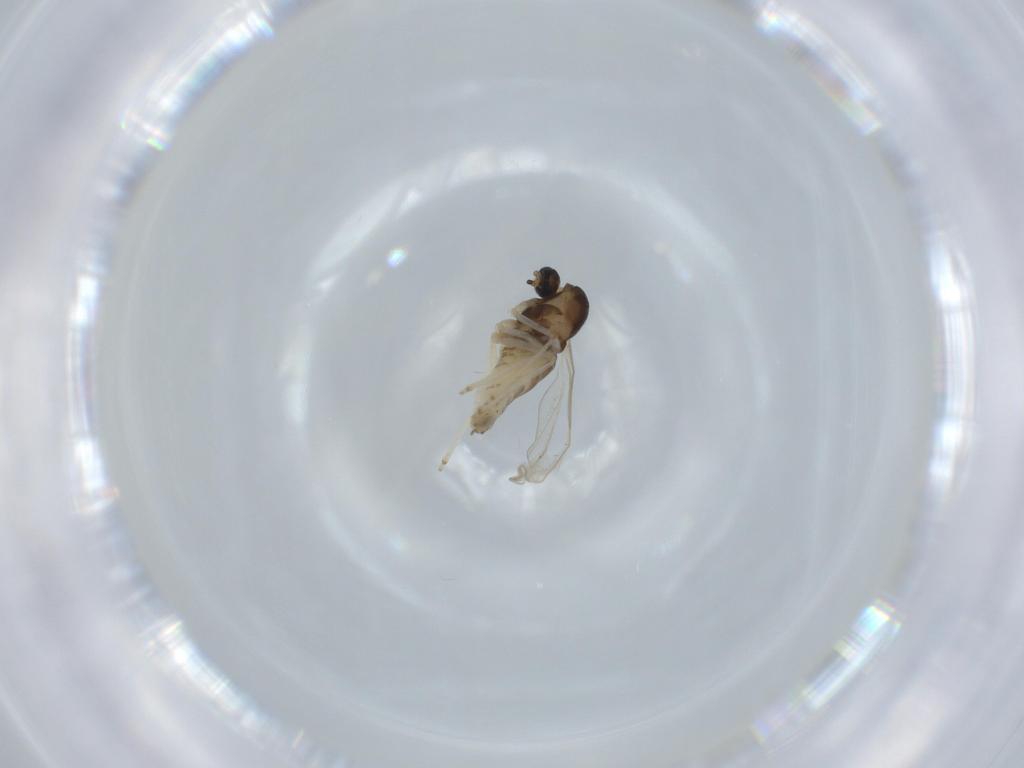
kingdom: Animalia
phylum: Arthropoda
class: Insecta
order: Diptera
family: Cecidomyiidae
